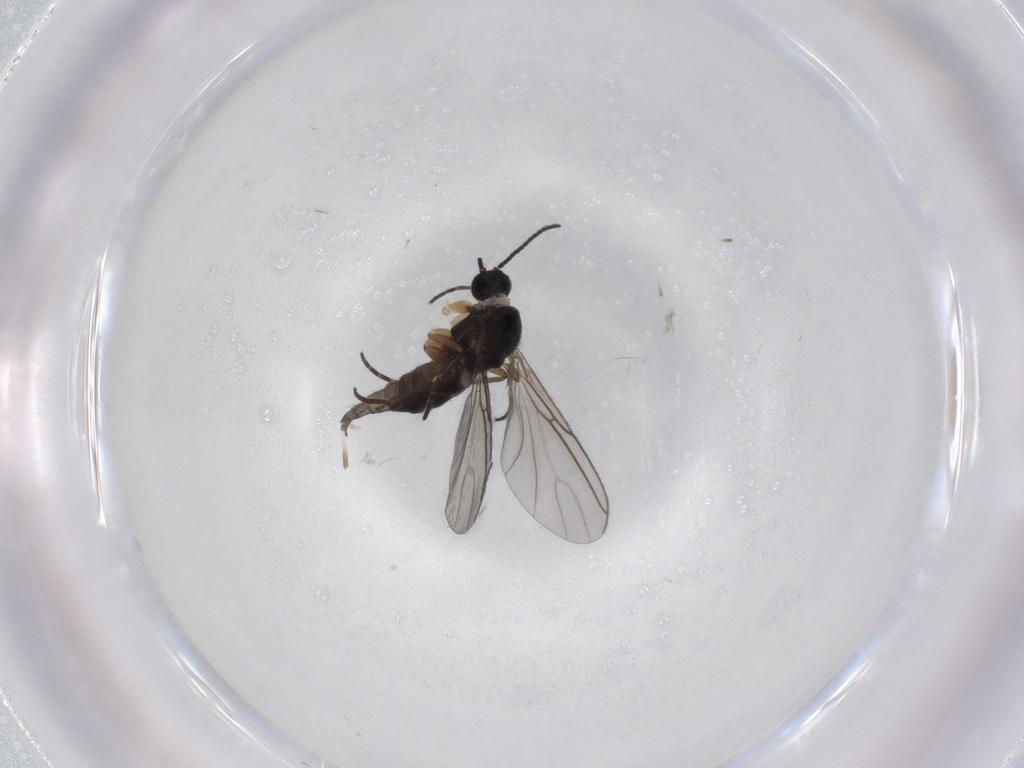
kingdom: Animalia
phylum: Arthropoda
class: Insecta
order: Diptera
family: Sciaridae
